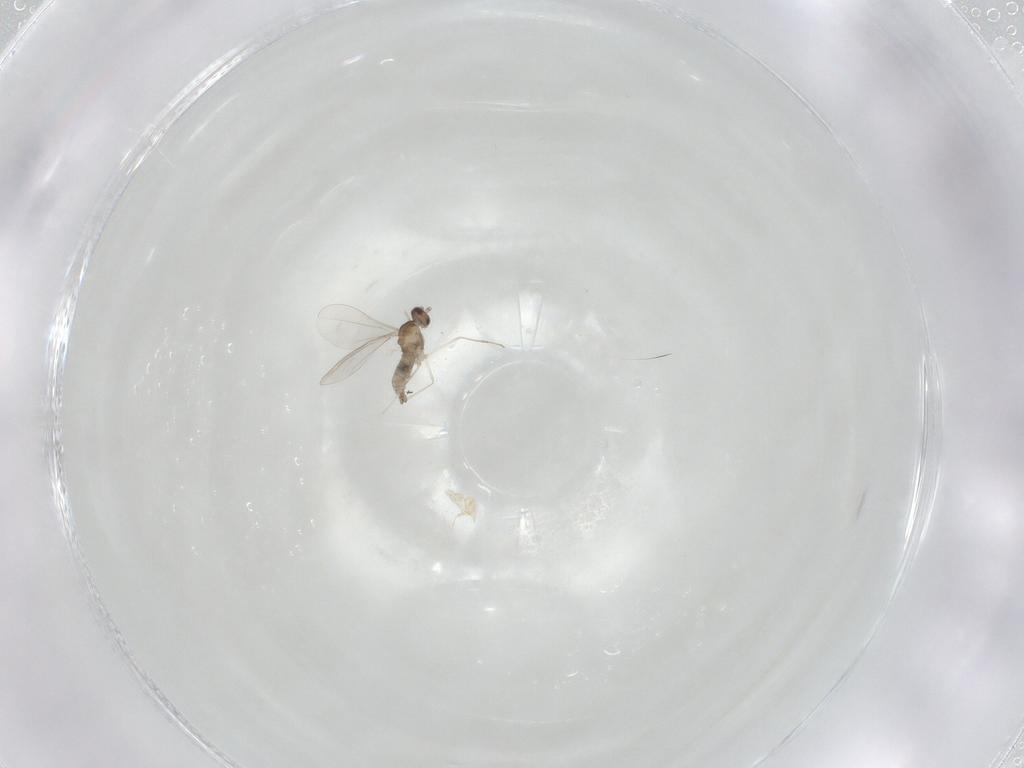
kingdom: Animalia
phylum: Arthropoda
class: Insecta
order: Diptera
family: Cecidomyiidae
